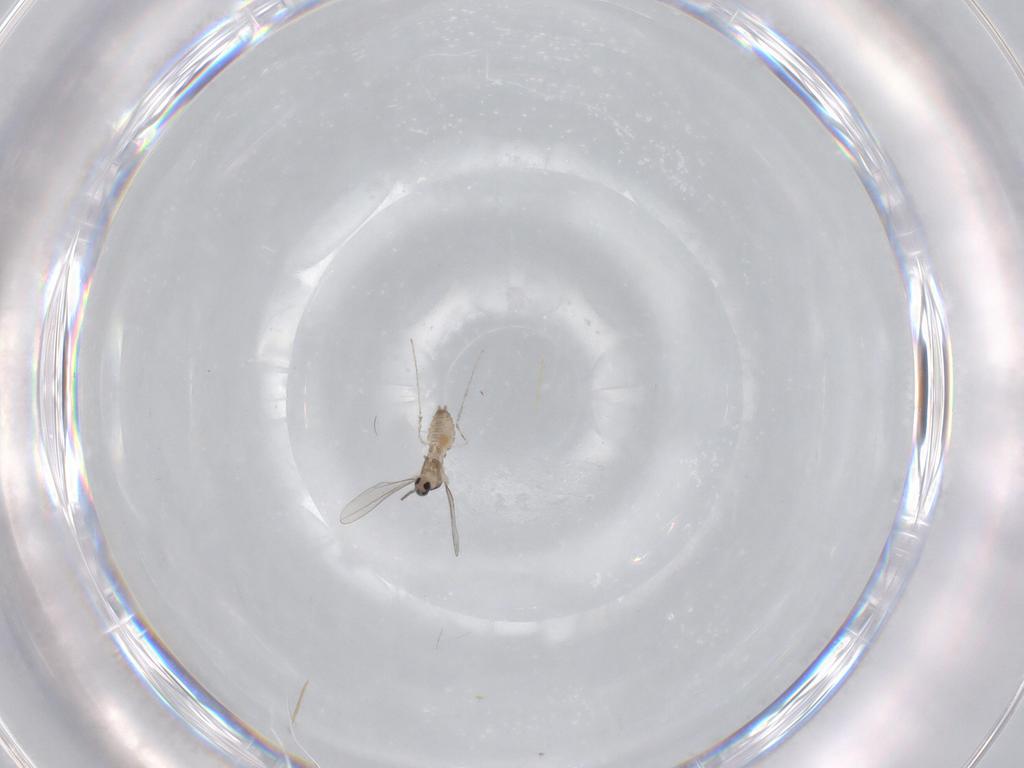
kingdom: Animalia
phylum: Arthropoda
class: Insecta
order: Diptera
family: Cecidomyiidae
